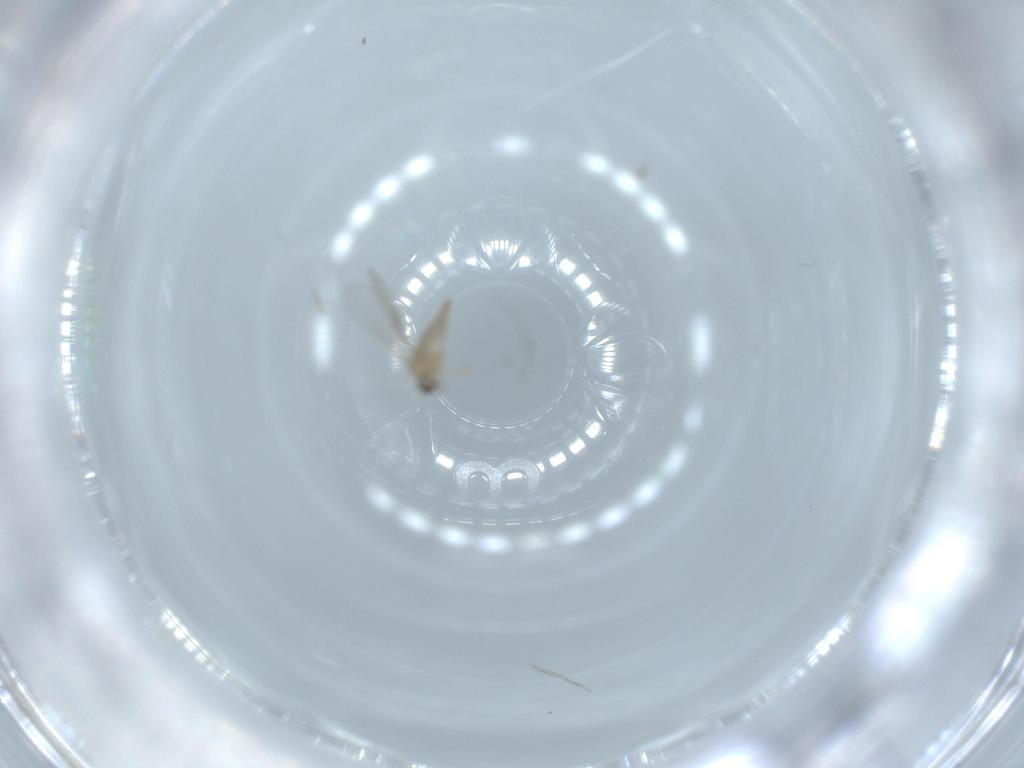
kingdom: Animalia
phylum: Arthropoda
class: Insecta
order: Diptera
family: Cecidomyiidae
